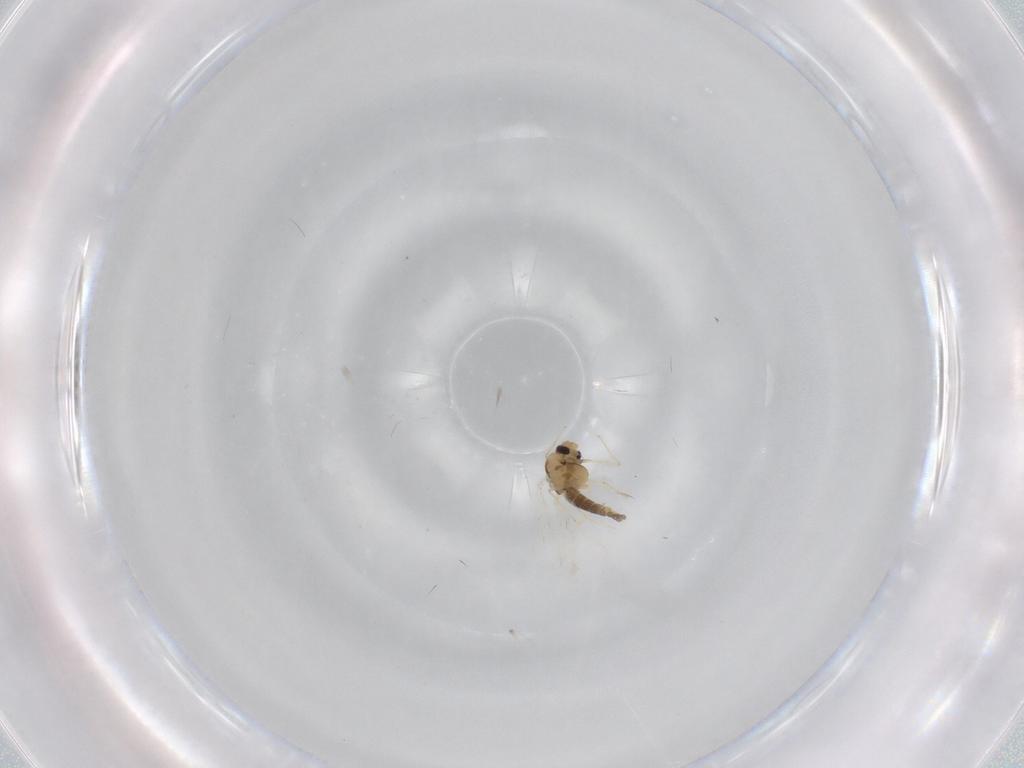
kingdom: Animalia
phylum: Arthropoda
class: Insecta
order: Diptera
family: Chironomidae
